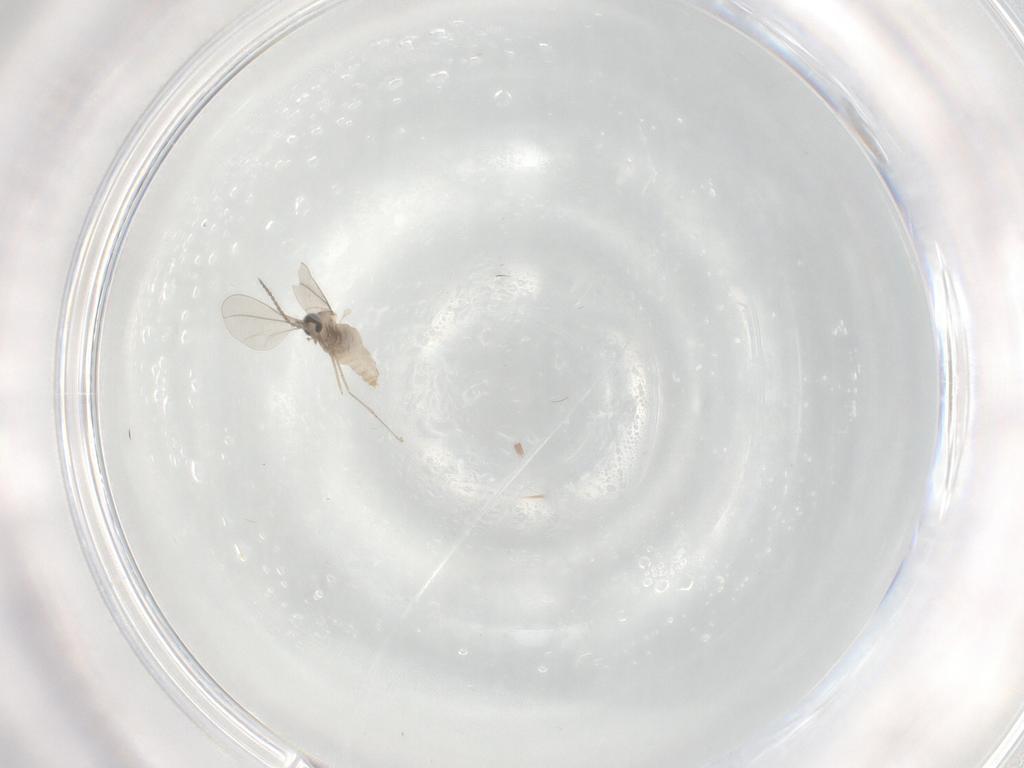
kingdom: Animalia
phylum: Arthropoda
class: Insecta
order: Diptera
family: Cecidomyiidae
